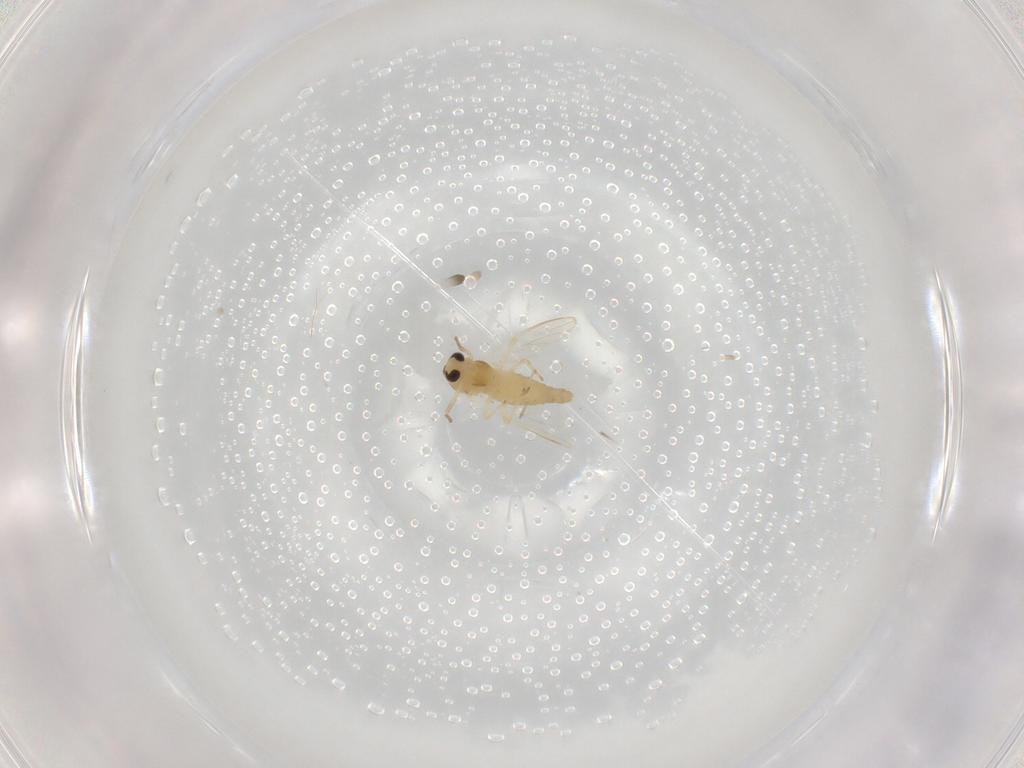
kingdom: Animalia
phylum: Arthropoda
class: Insecta
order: Diptera
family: Chironomidae
